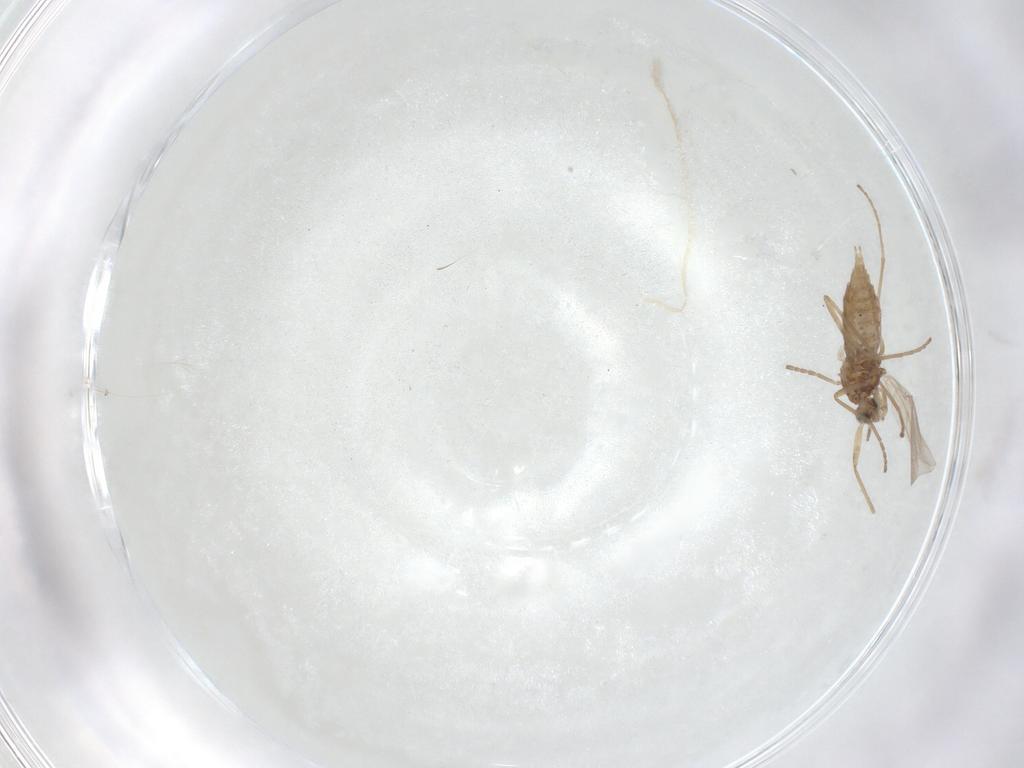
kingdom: Animalia
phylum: Arthropoda
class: Insecta
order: Diptera
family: Cecidomyiidae
